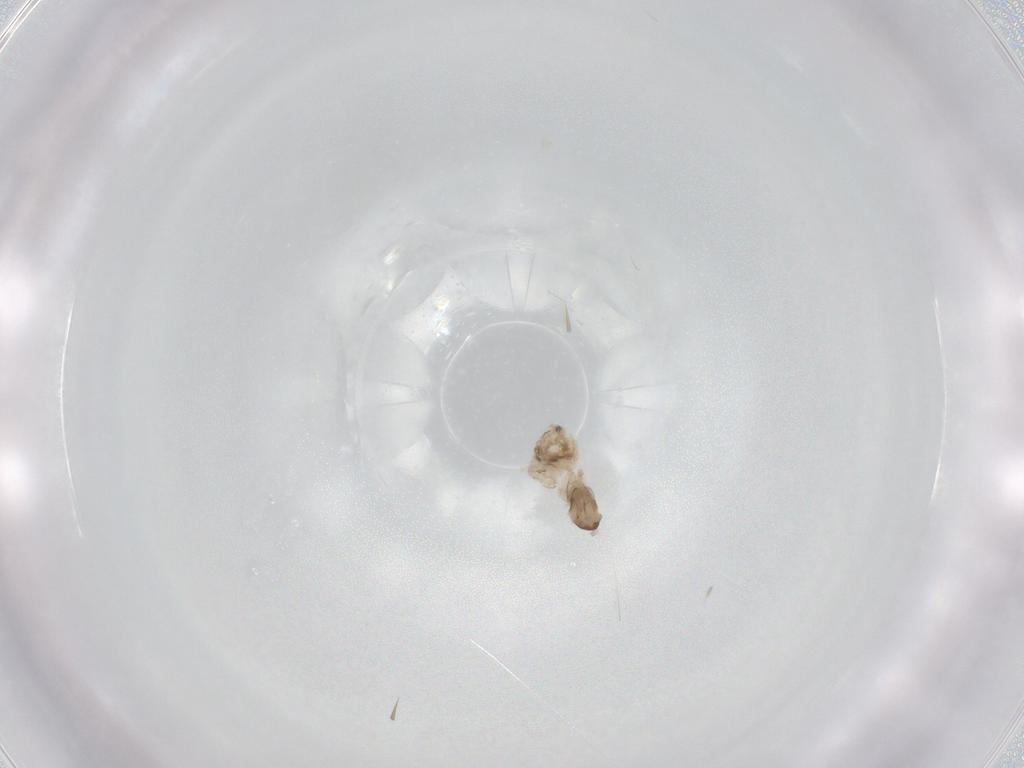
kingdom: Animalia
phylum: Arthropoda
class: Insecta
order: Diptera
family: Cecidomyiidae
